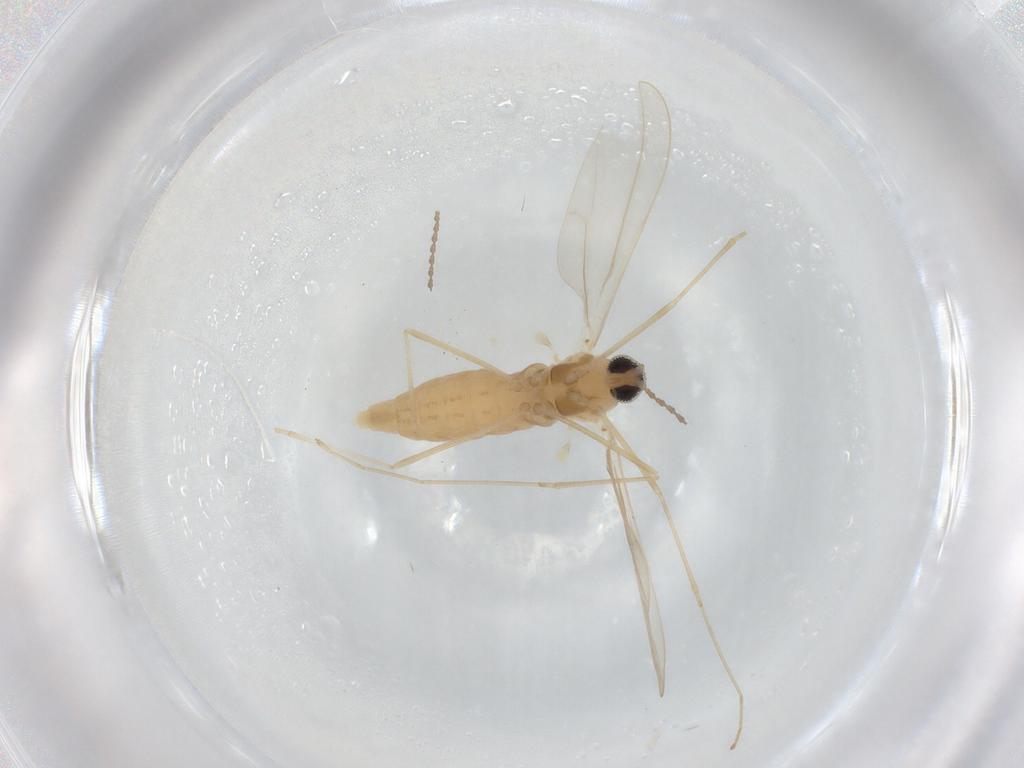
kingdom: Animalia
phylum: Arthropoda
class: Insecta
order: Diptera
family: Cecidomyiidae
